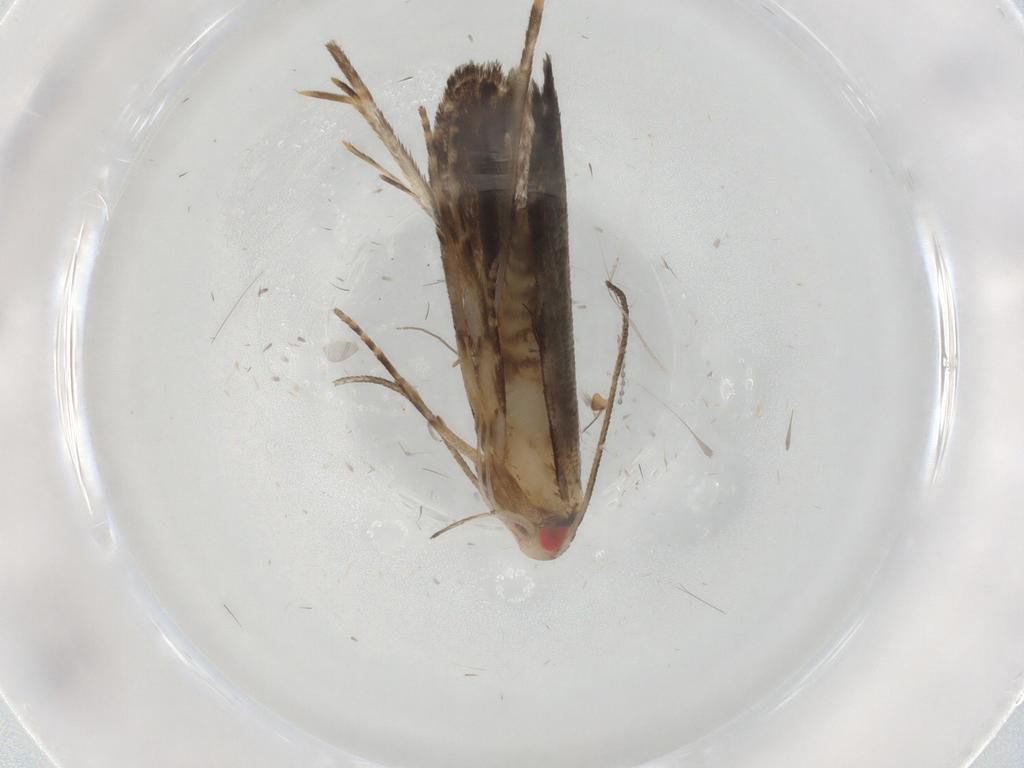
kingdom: Animalia
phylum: Arthropoda
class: Insecta
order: Lepidoptera
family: Gelechiidae
